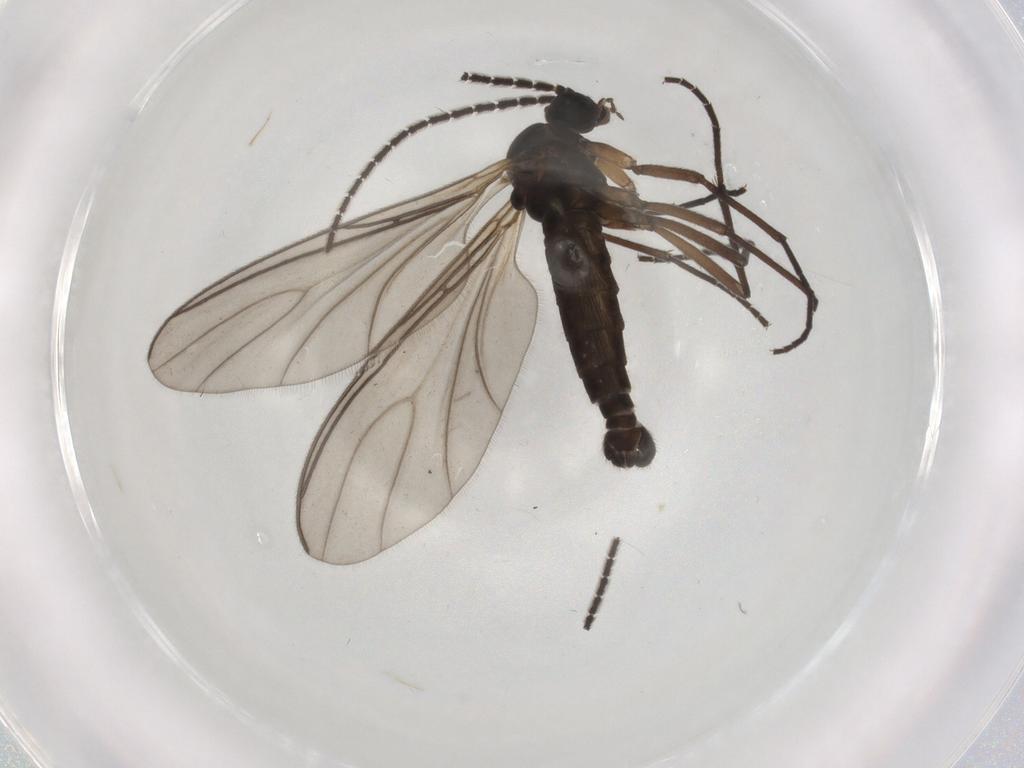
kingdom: Animalia
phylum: Arthropoda
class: Insecta
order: Diptera
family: Sciaridae
